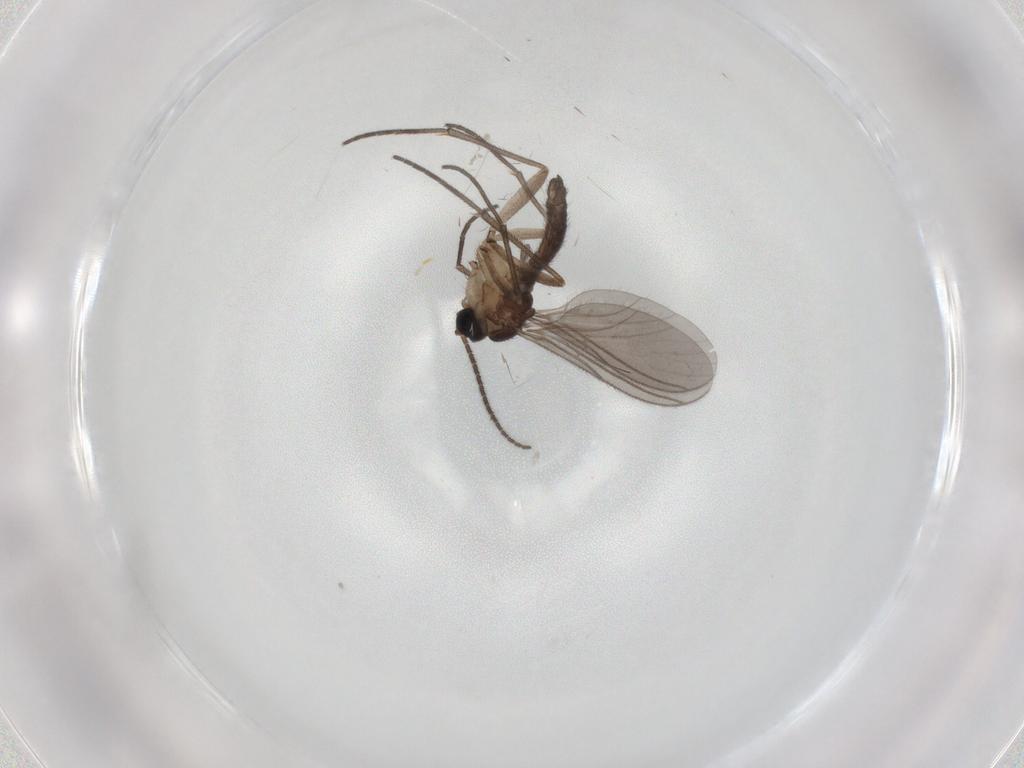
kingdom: Animalia
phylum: Arthropoda
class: Insecta
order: Diptera
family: Sciaridae
